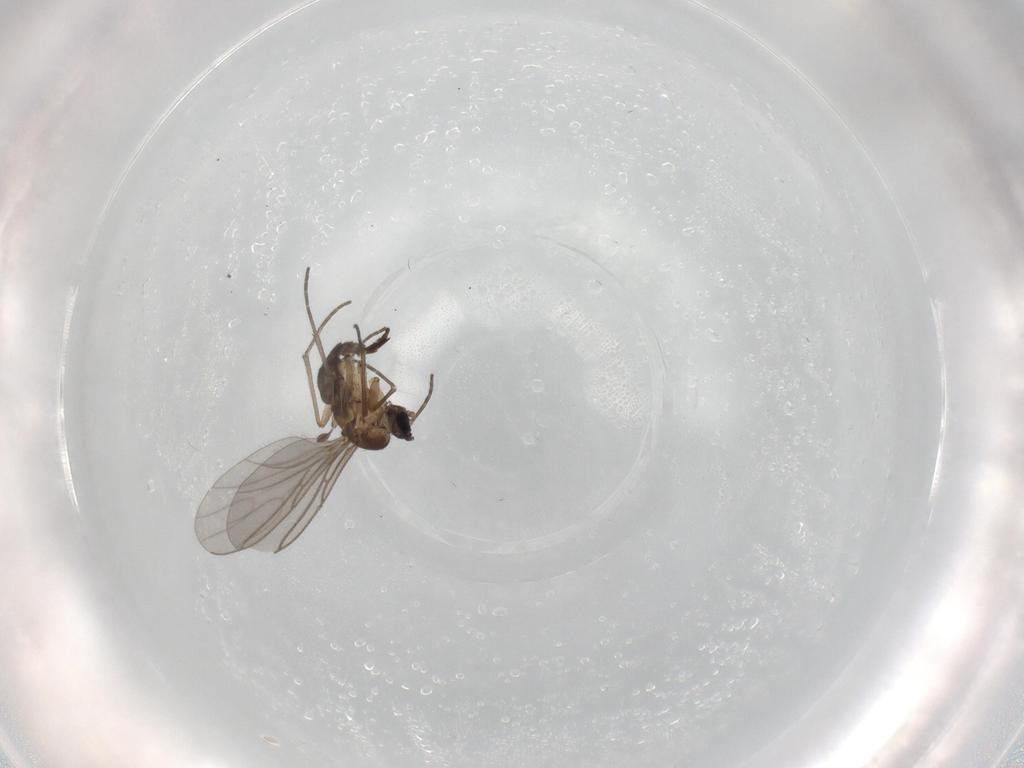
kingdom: Animalia
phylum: Arthropoda
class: Insecta
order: Diptera
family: Sciaridae
